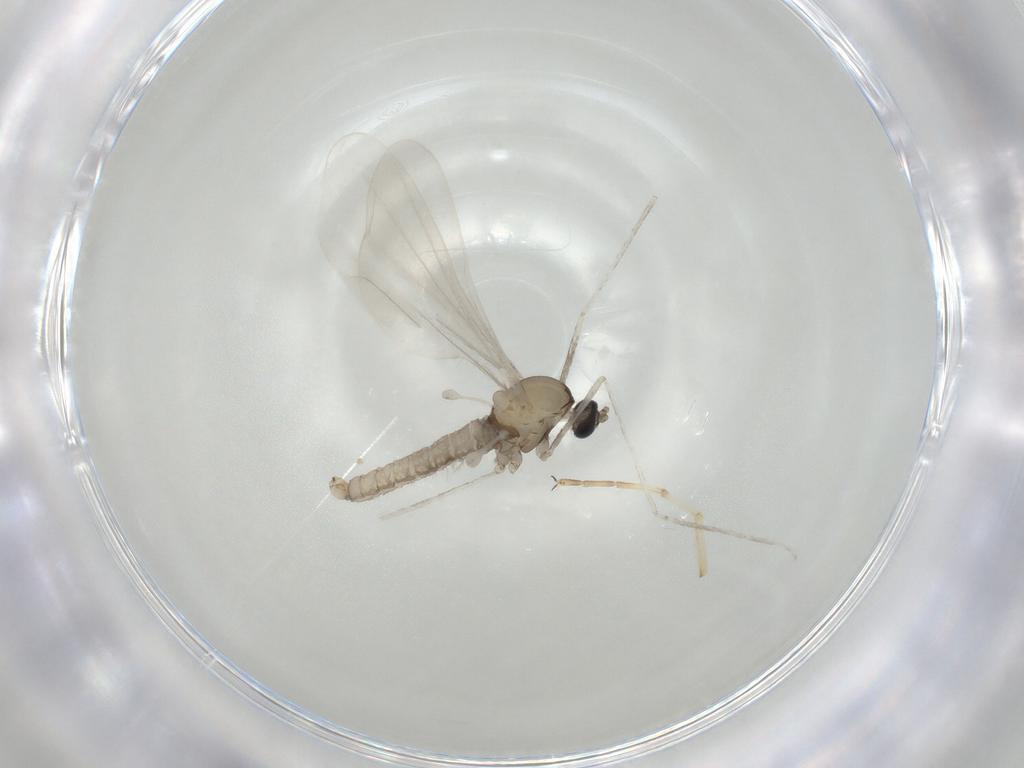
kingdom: Animalia
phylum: Arthropoda
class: Insecta
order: Diptera
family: Cecidomyiidae
